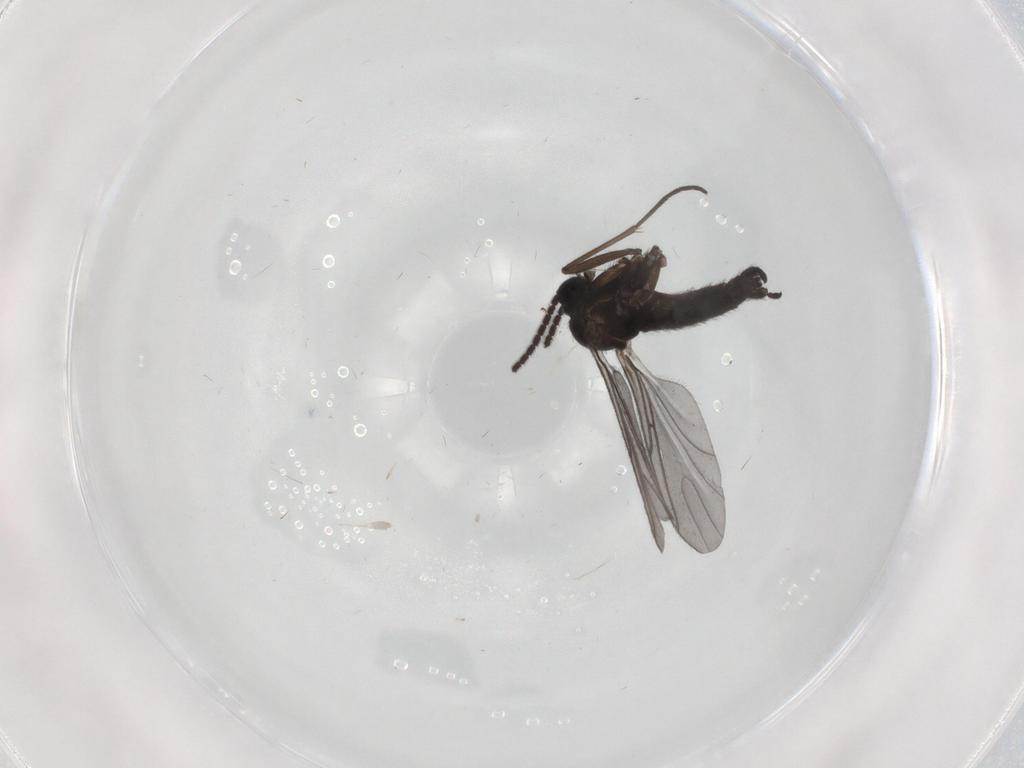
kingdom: Animalia
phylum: Arthropoda
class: Insecta
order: Diptera
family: Sciaridae
